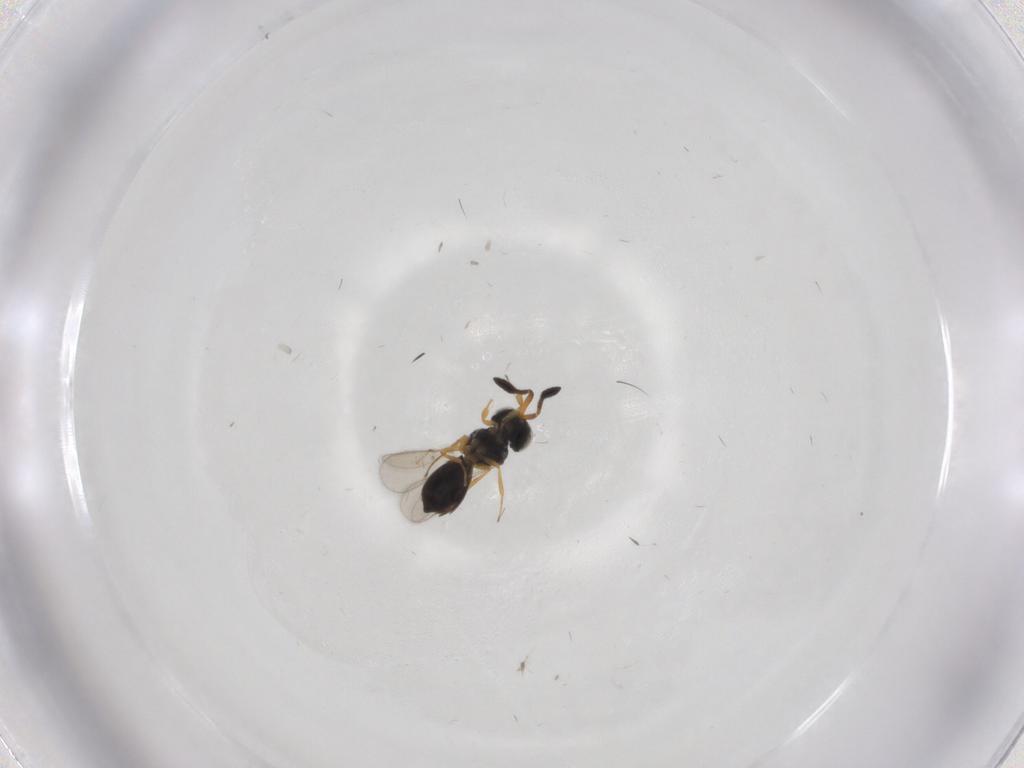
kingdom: Animalia
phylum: Arthropoda
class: Insecta
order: Hymenoptera
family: Scelionidae
